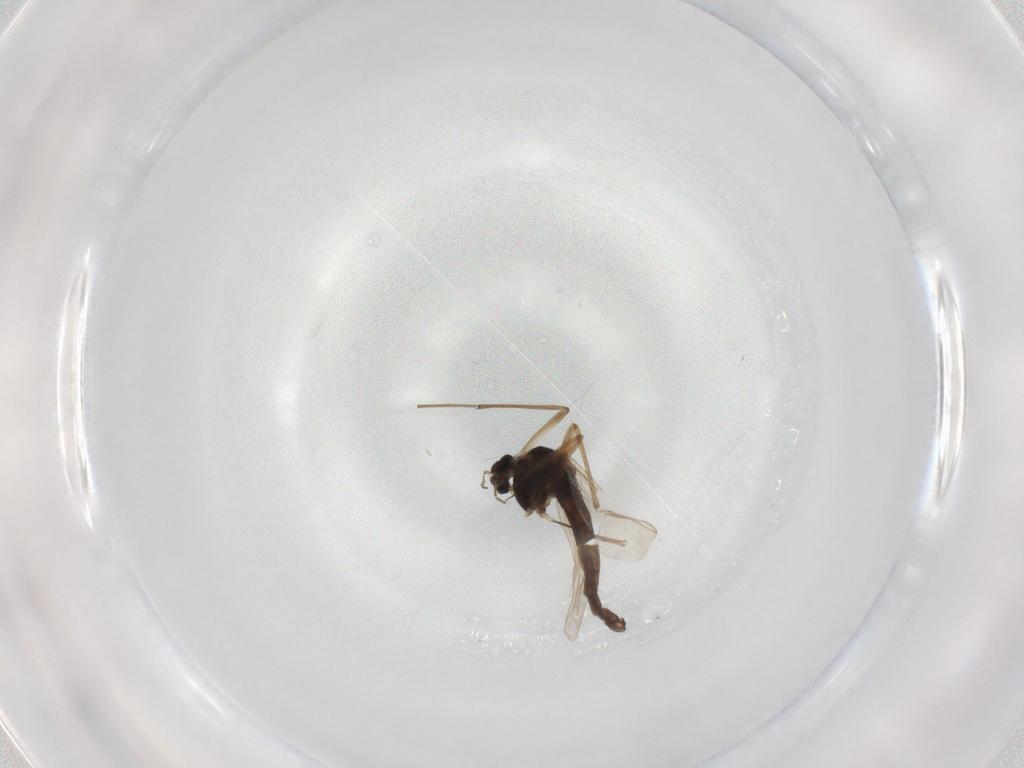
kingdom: Animalia
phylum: Arthropoda
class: Insecta
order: Diptera
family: Chironomidae
